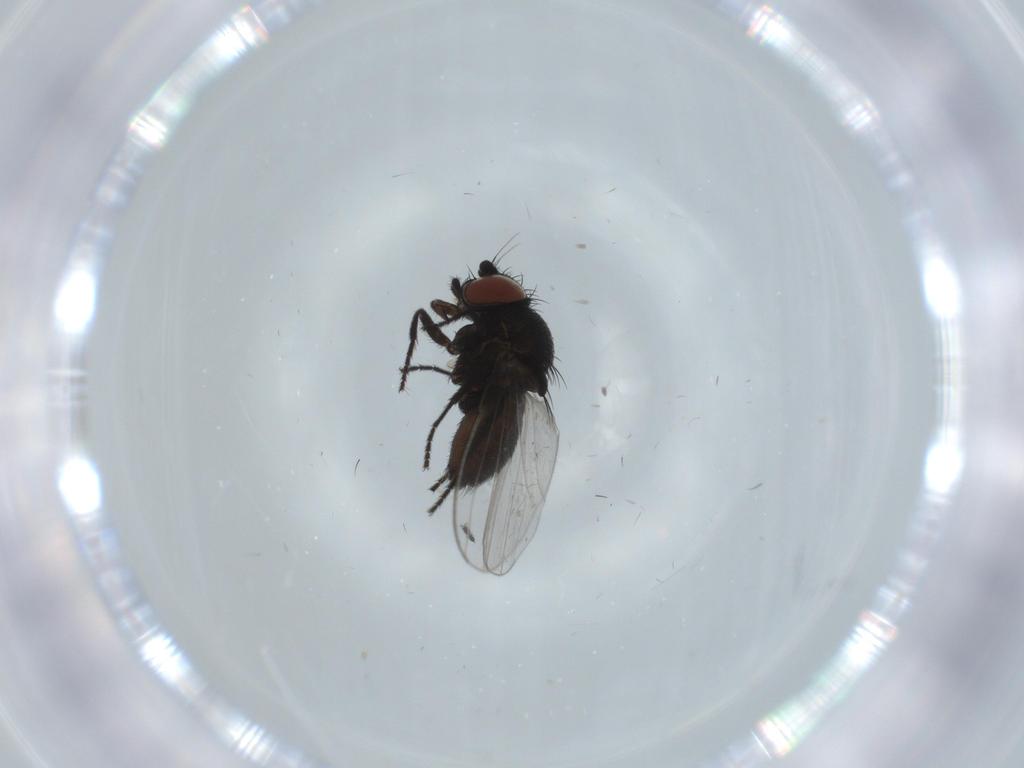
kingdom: Animalia
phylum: Arthropoda
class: Insecta
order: Diptera
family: Milichiidae
